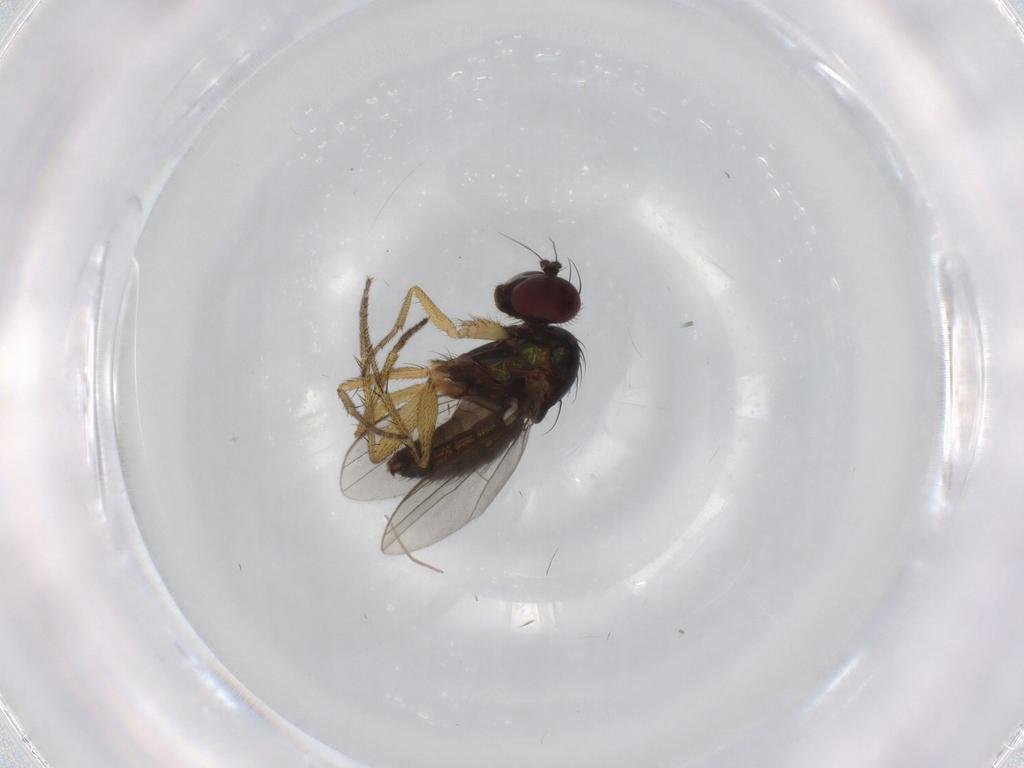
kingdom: Animalia
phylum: Arthropoda
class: Insecta
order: Diptera
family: Dolichopodidae
